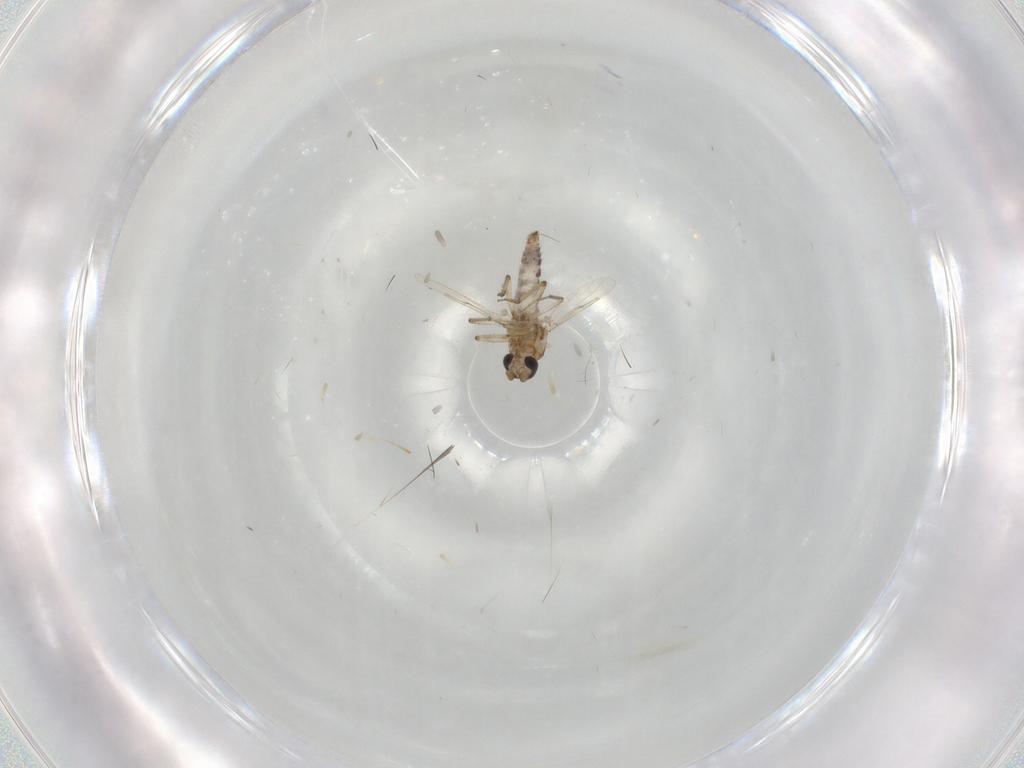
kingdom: Animalia
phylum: Arthropoda
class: Insecta
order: Diptera
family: Ceratopogonidae
